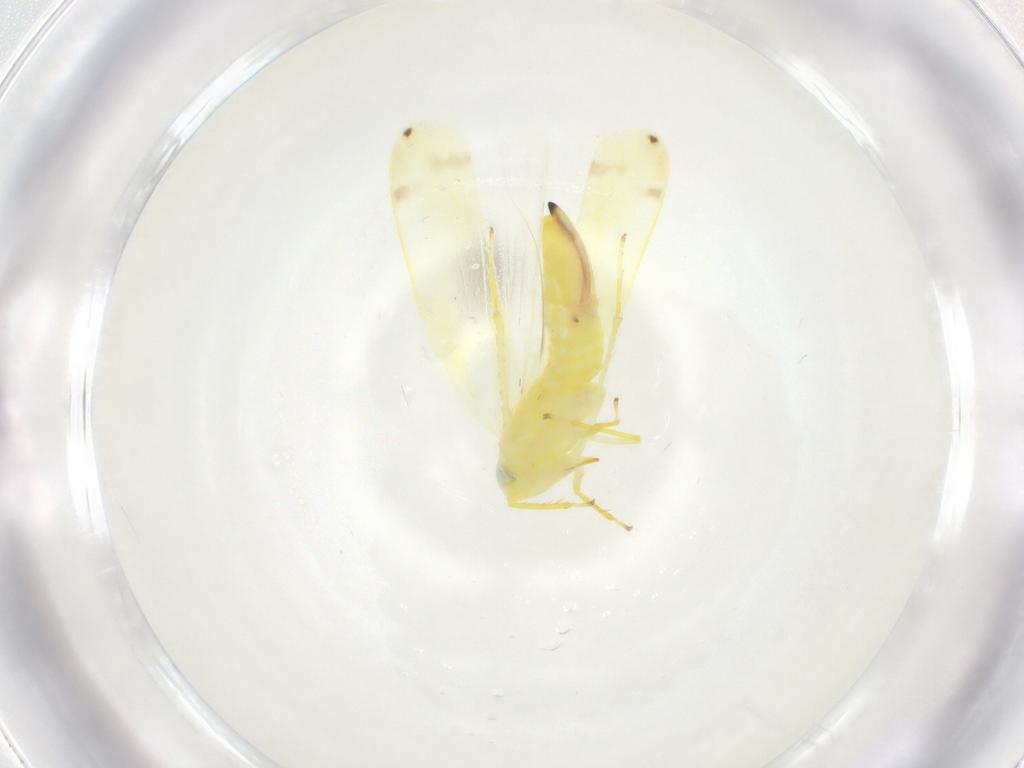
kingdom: Animalia
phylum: Arthropoda
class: Insecta
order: Hemiptera
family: Cicadellidae
